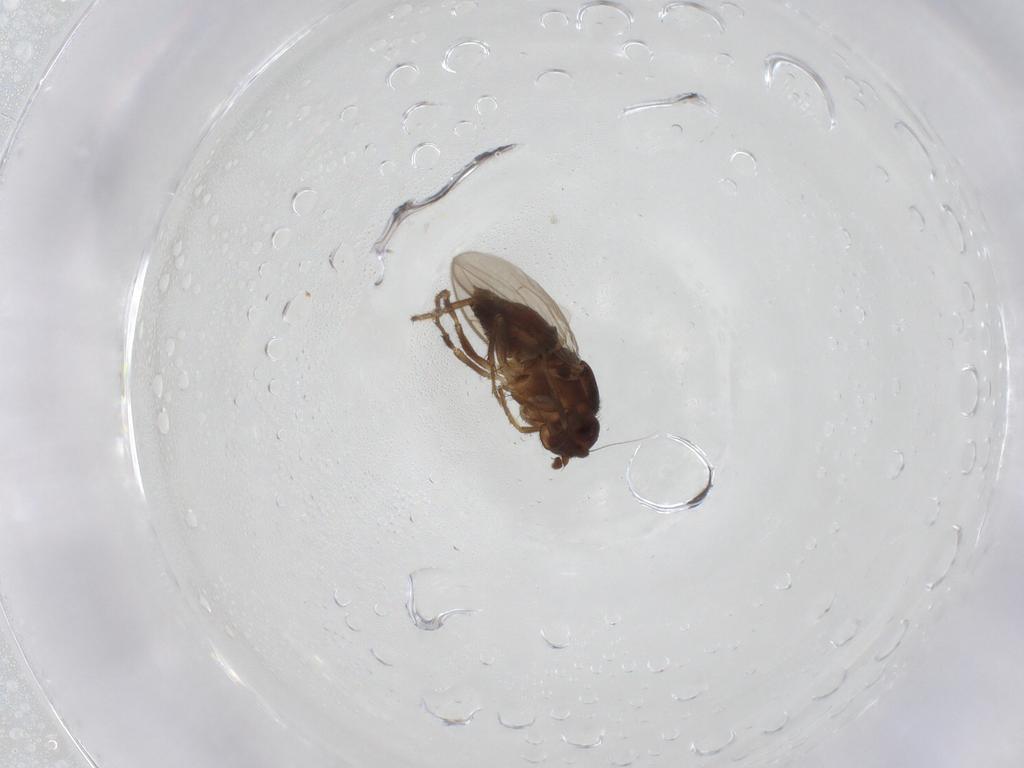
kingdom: Animalia
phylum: Arthropoda
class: Insecta
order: Diptera
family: Sphaeroceridae
